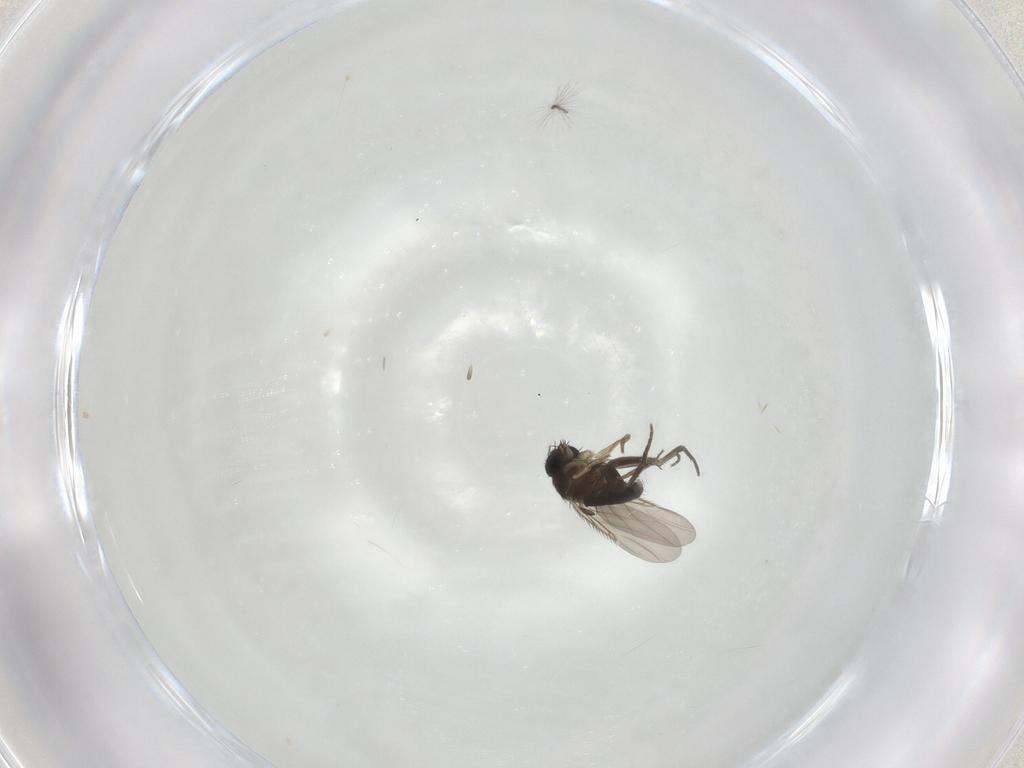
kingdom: Animalia
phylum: Arthropoda
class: Insecta
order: Diptera
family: Phoridae
